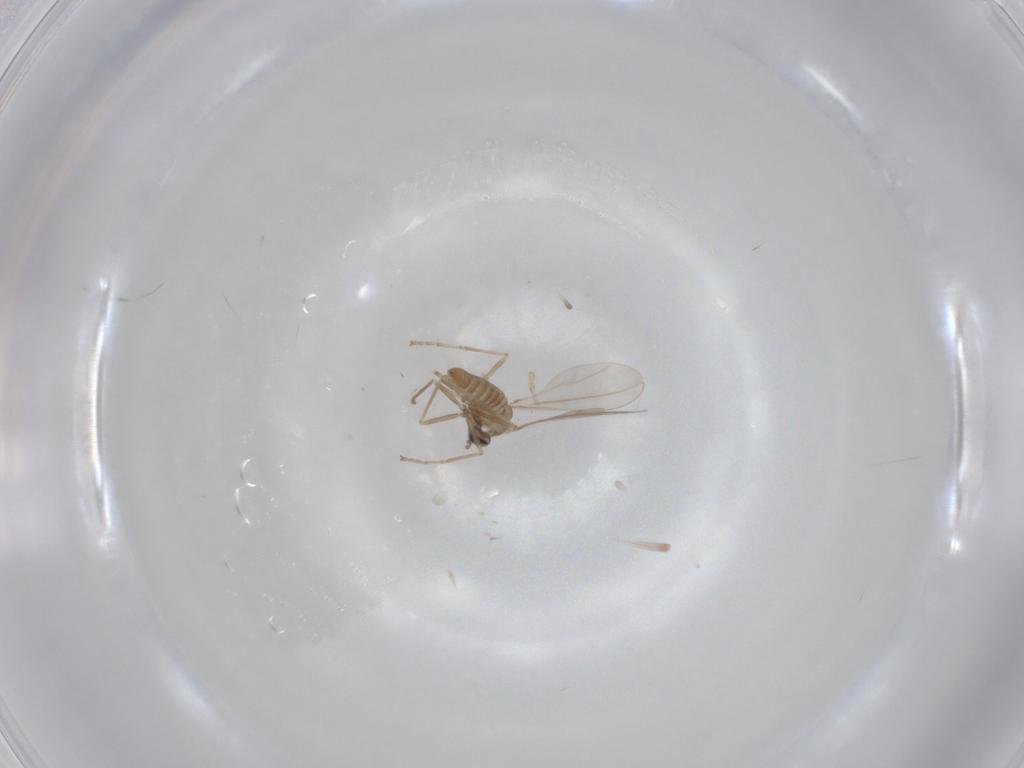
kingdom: Animalia
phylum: Arthropoda
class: Insecta
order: Diptera
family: Cecidomyiidae
